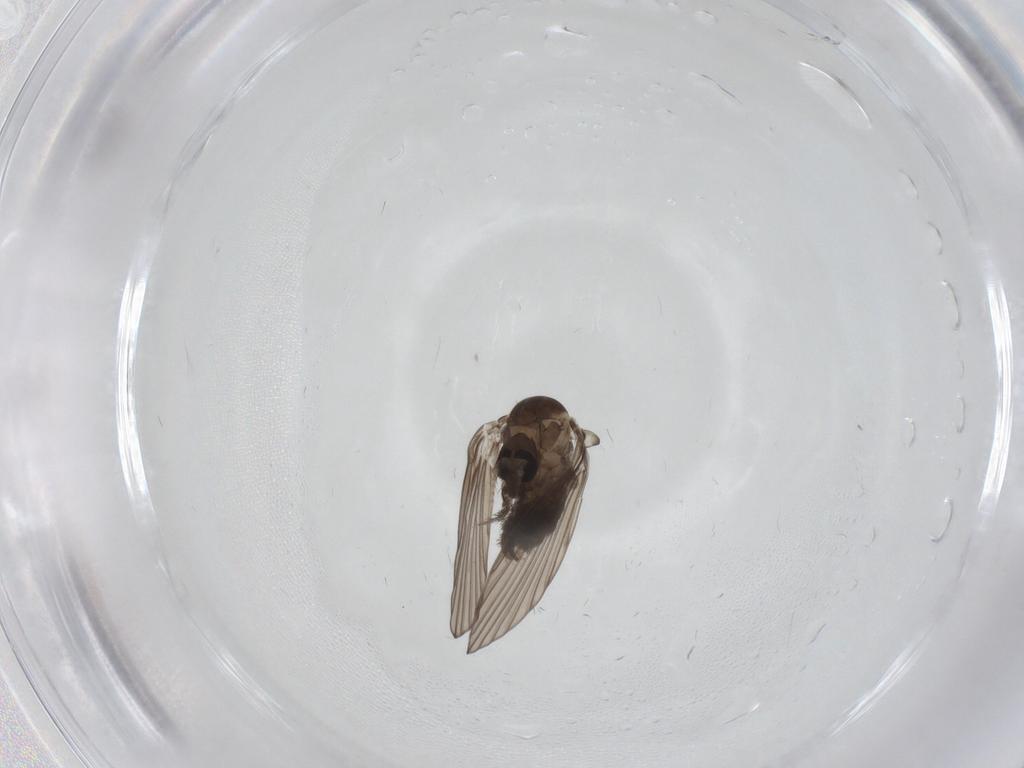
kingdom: Animalia
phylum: Arthropoda
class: Insecta
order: Diptera
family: Psychodidae
